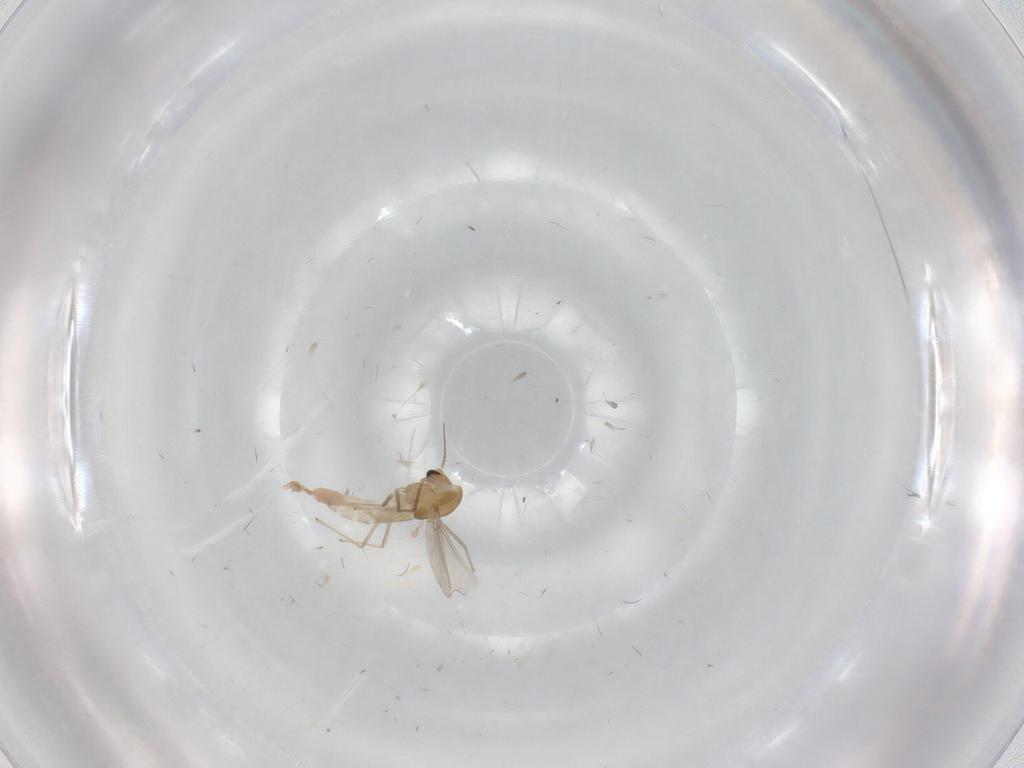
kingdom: Animalia
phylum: Arthropoda
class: Insecta
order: Diptera
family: Chironomidae
